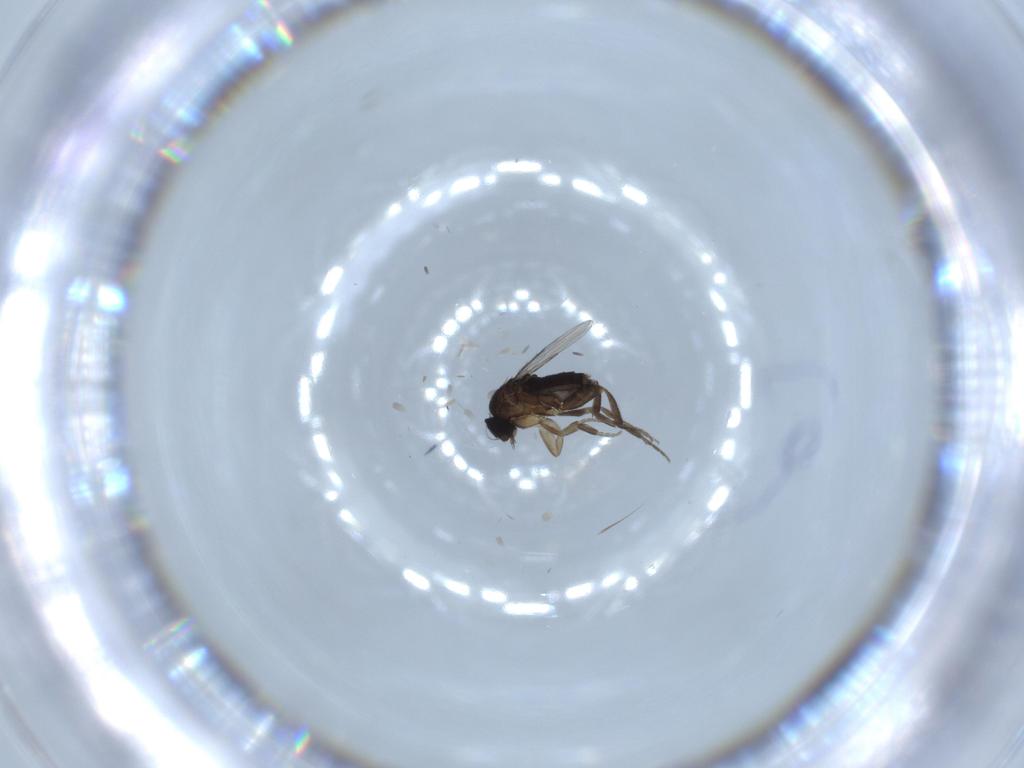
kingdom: Animalia
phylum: Arthropoda
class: Insecta
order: Diptera
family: Phoridae
